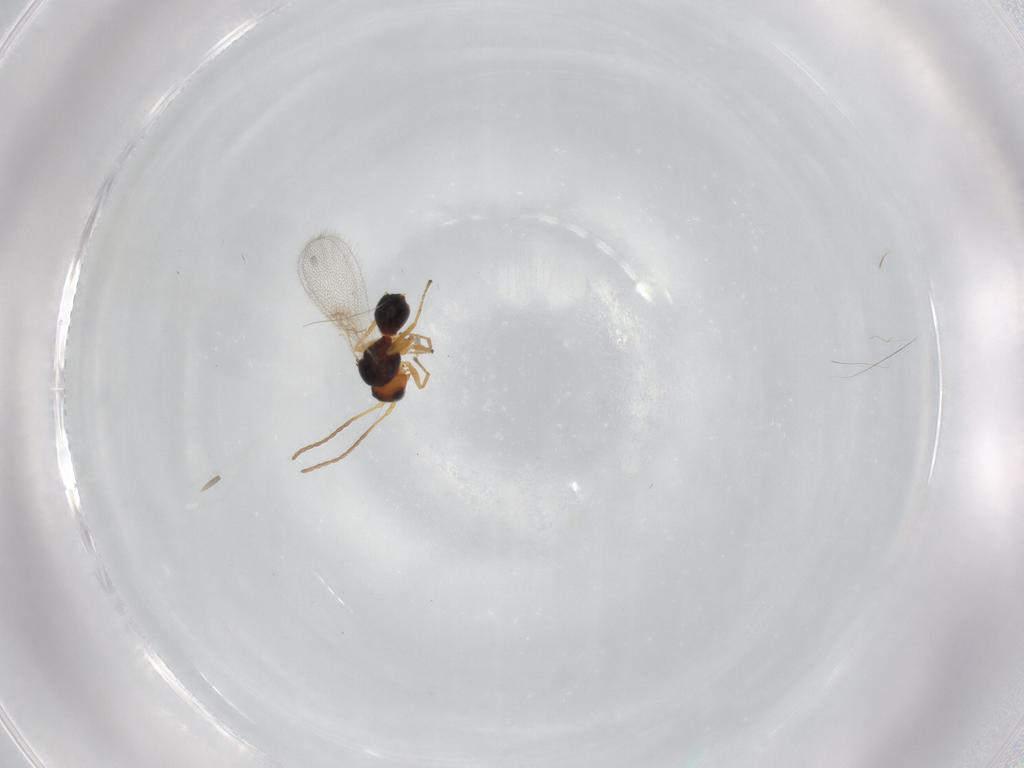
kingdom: Animalia
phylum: Arthropoda
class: Insecta
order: Hymenoptera
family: Figitidae
